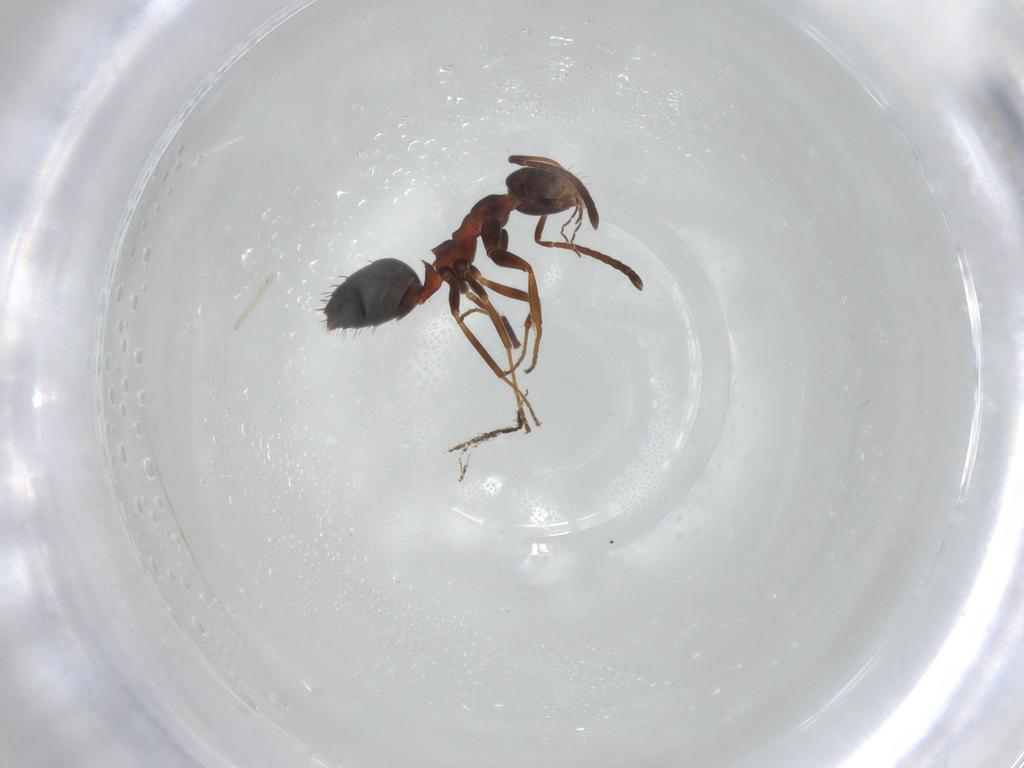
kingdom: Animalia
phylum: Arthropoda
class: Insecta
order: Hymenoptera
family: Formicidae
